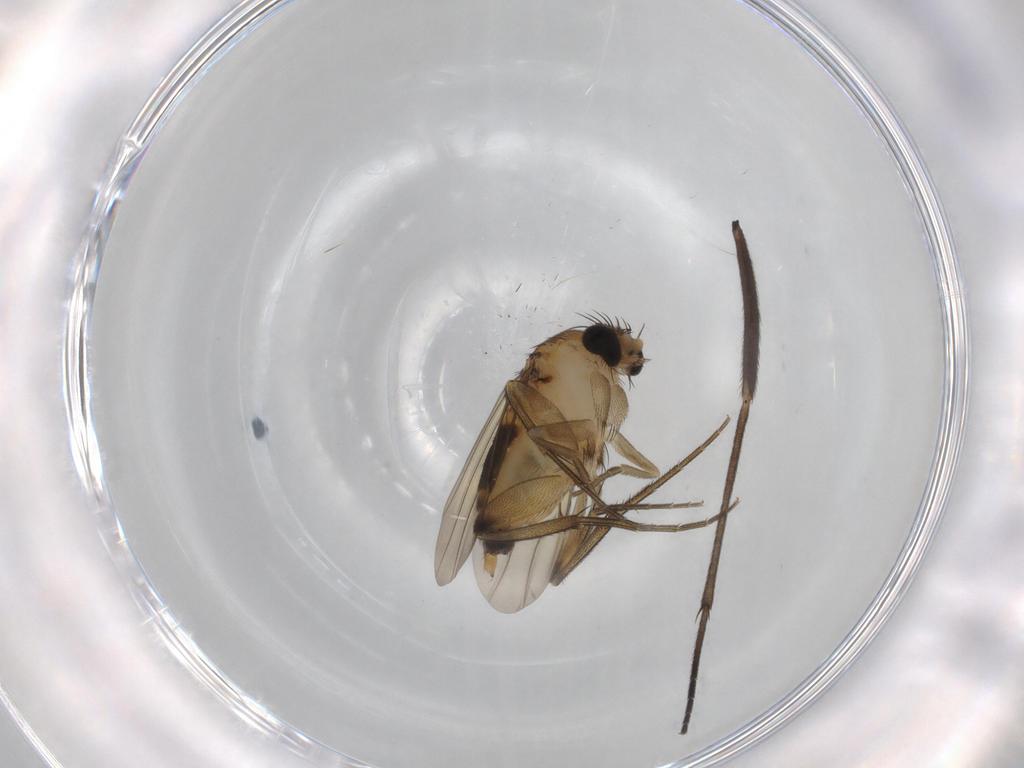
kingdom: Animalia
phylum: Arthropoda
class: Insecta
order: Diptera
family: Phoridae
